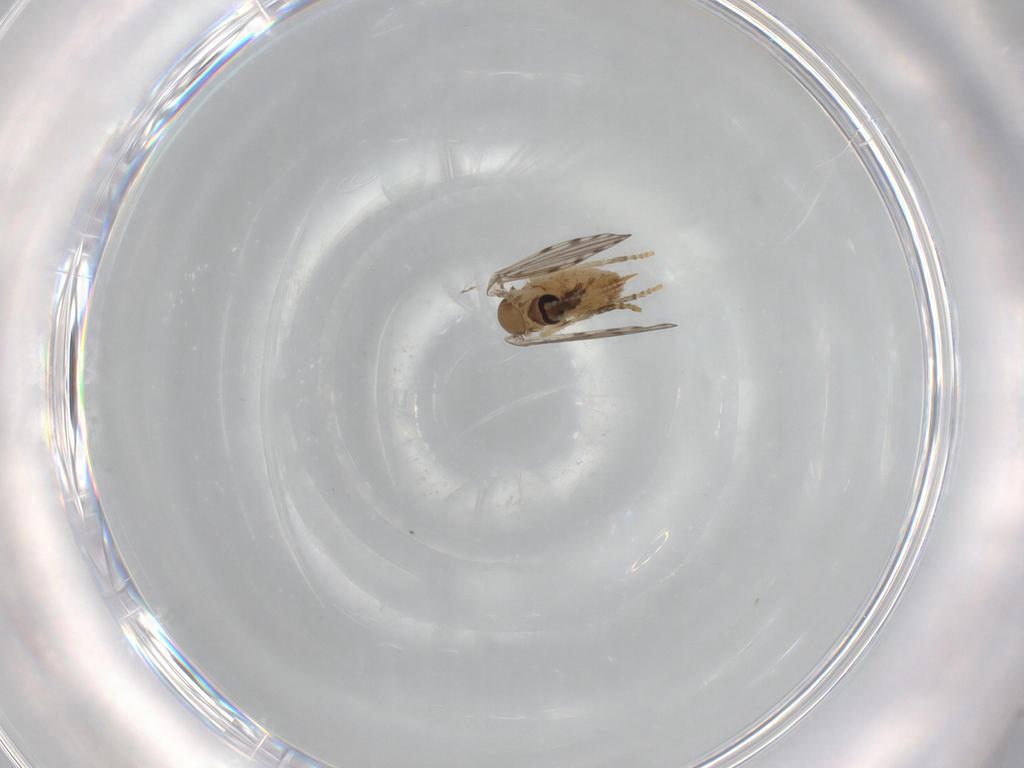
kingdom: Animalia
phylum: Arthropoda
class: Insecta
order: Diptera
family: Psychodidae
